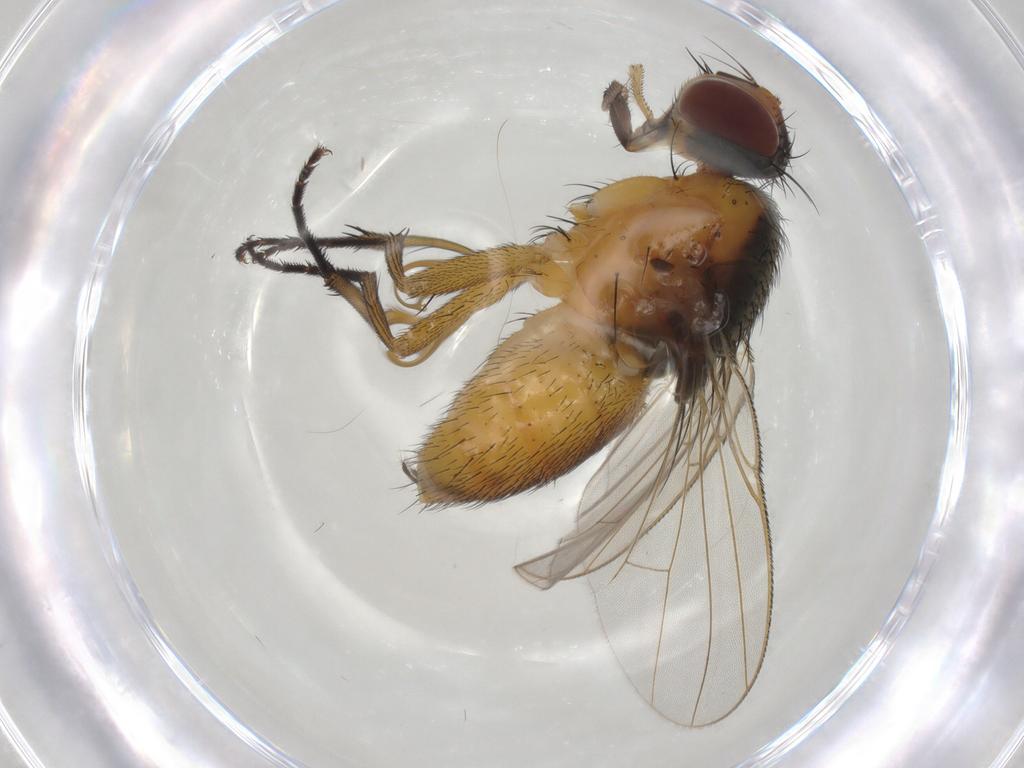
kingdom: Animalia
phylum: Arthropoda
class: Insecta
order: Diptera
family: Muscidae
